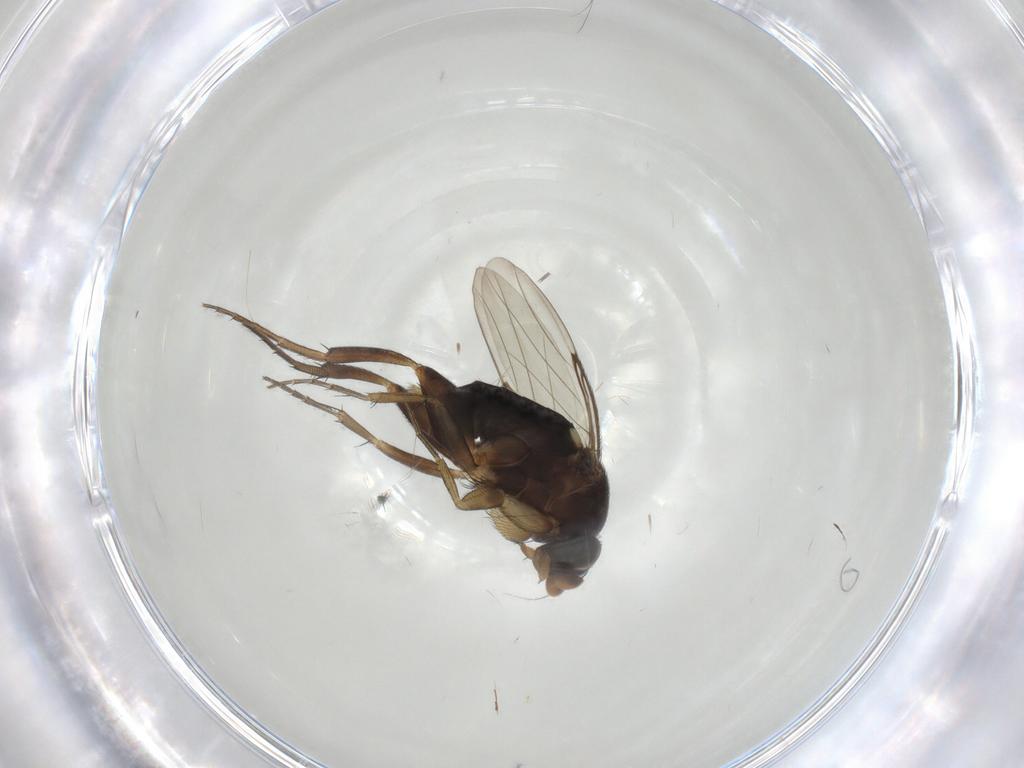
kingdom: Animalia
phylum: Arthropoda
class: Insecta
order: Diptera
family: Phoridae
